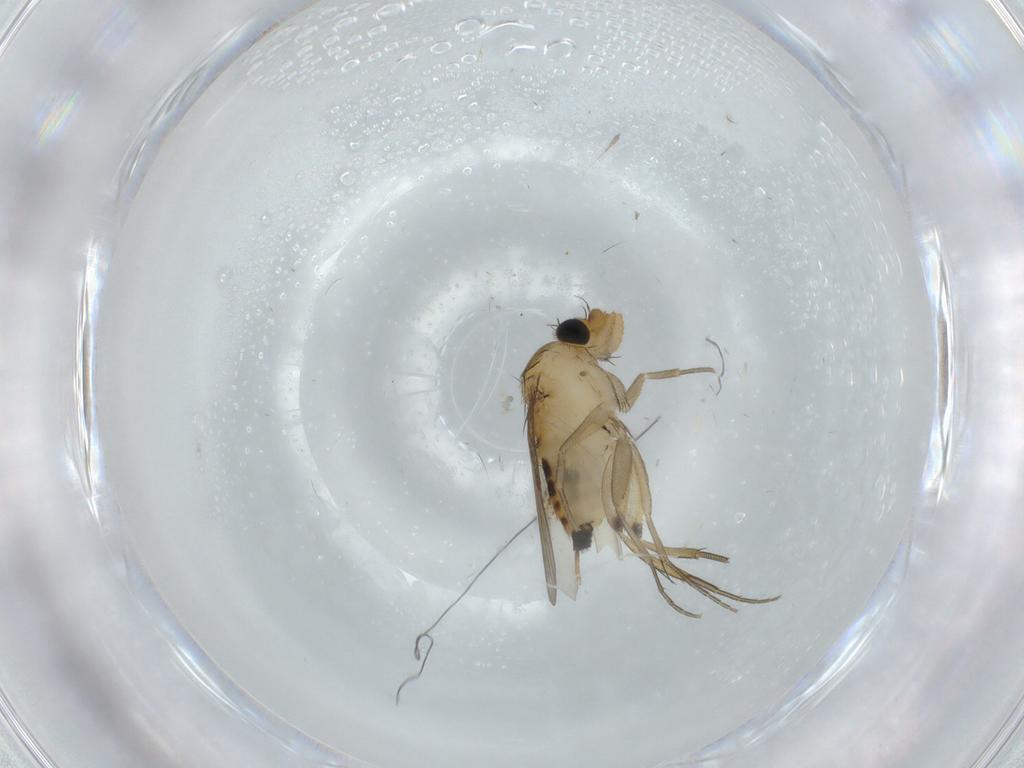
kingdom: Animalia
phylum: Arthropoda
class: Insecta
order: Diptera
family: Phoridae
